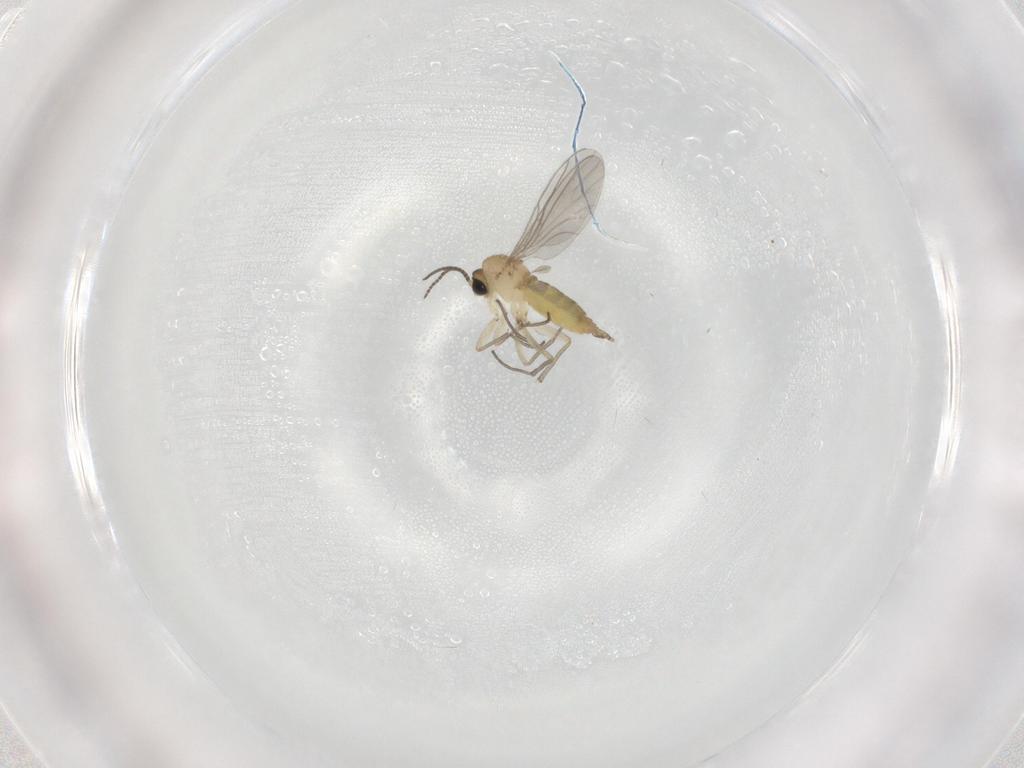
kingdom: Animalia
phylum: Arthropoda
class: Insecta
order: Diptera
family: Sciaridae
